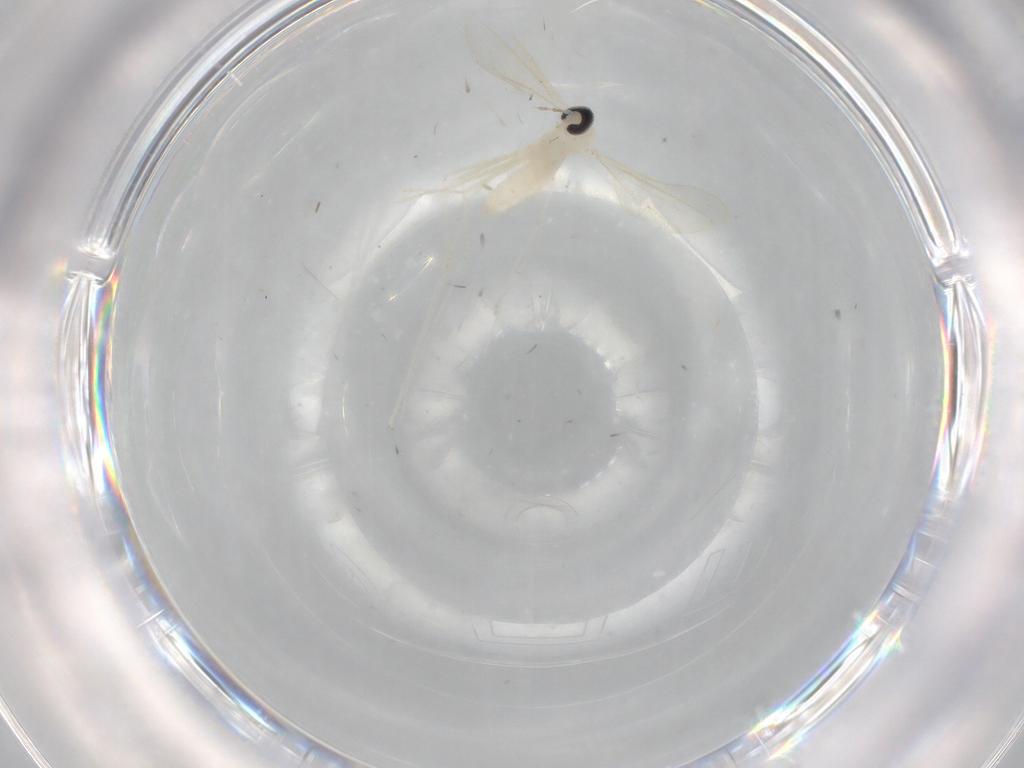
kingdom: Animalia
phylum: Arthropoda
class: Insecta
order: Diptera
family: Cecidomyiidae
